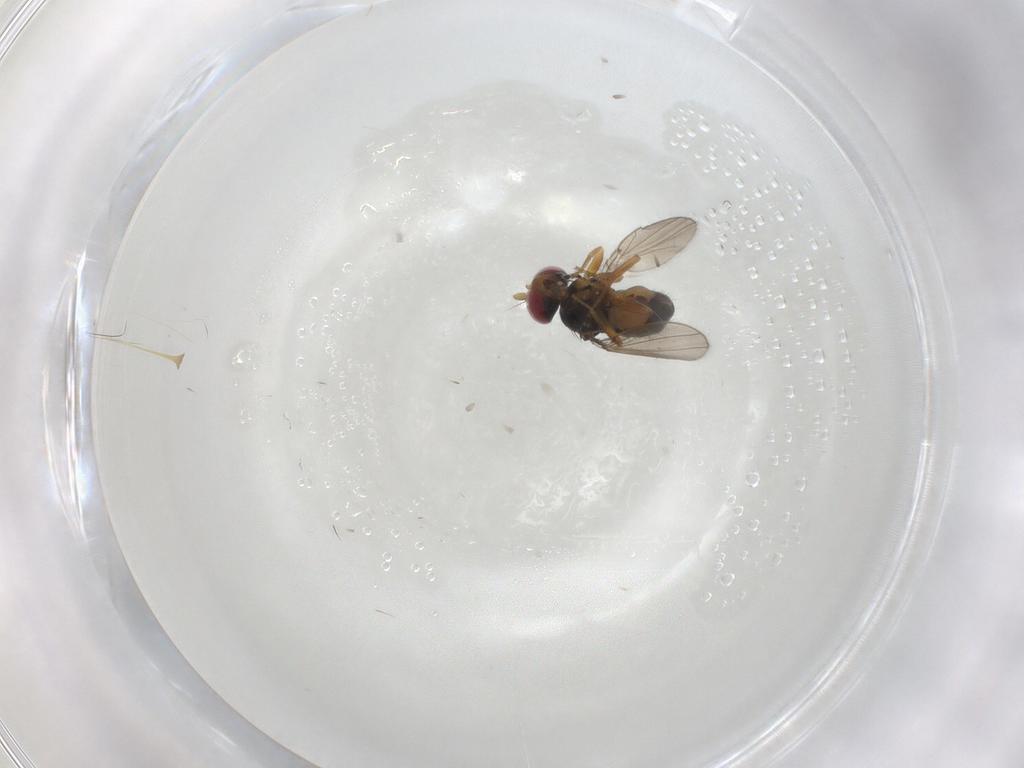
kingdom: Animalia
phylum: Arthropoda
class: Insecta
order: Diptera
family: Ephydridae
